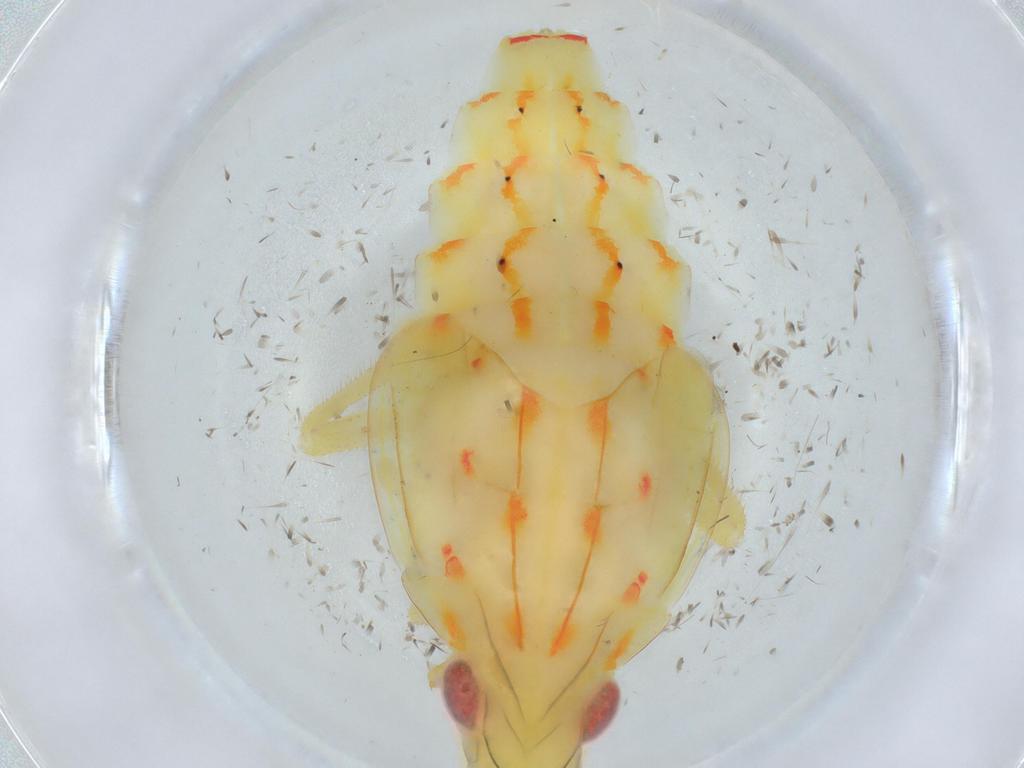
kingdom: Animalia
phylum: Arthropoda
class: Insecta
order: Hemiptera
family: Tropiduchidae
